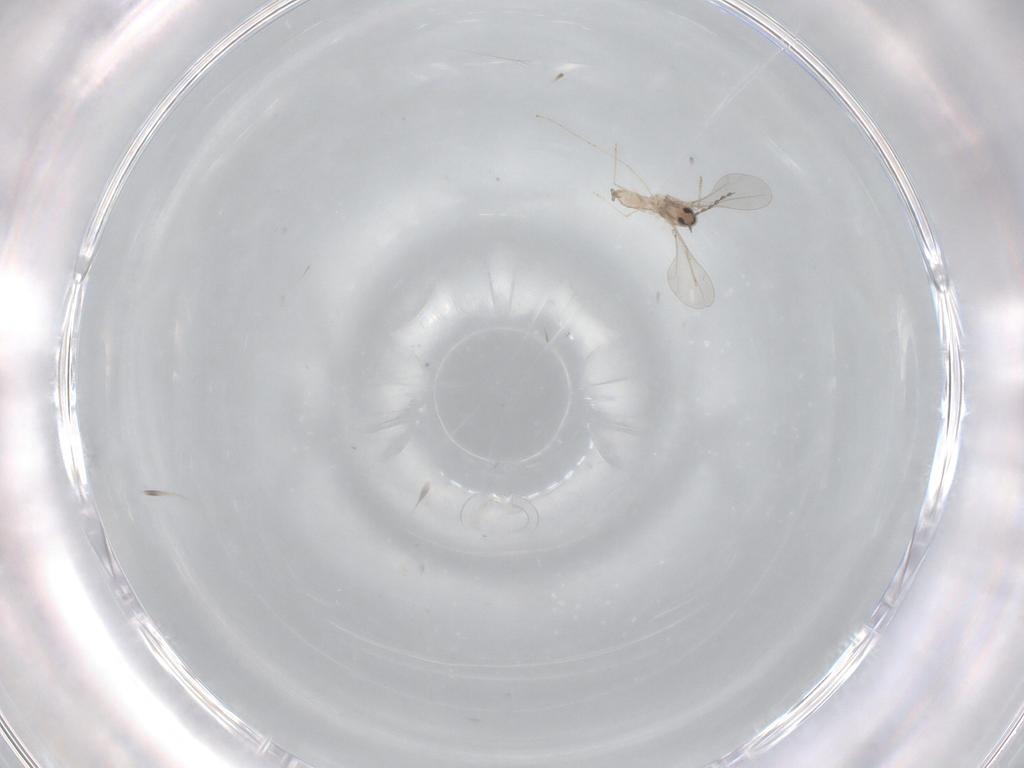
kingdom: Animalia
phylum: Arthropoda
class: Insecta
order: Diptera
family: Cecidomyiidae
